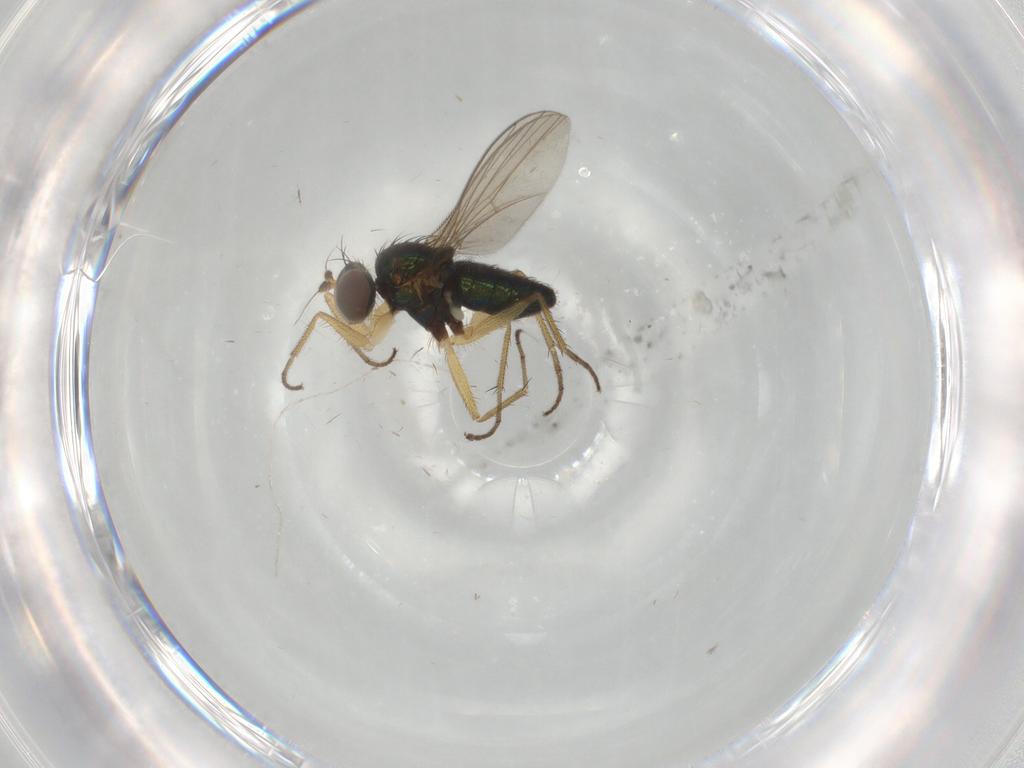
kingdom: Animalia
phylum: Arthropoda
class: Insecta
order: Diptera
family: Dolichopodidae
